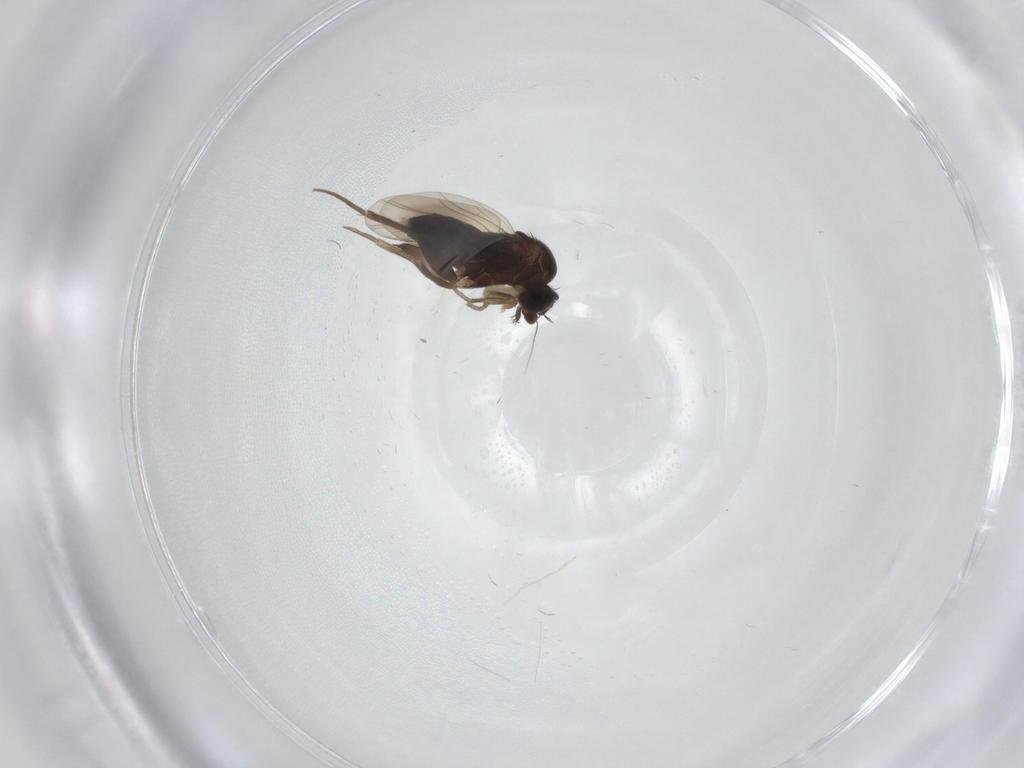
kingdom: Animalia
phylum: Arthropoda
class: Insecta
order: Diptera
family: Phoridae
